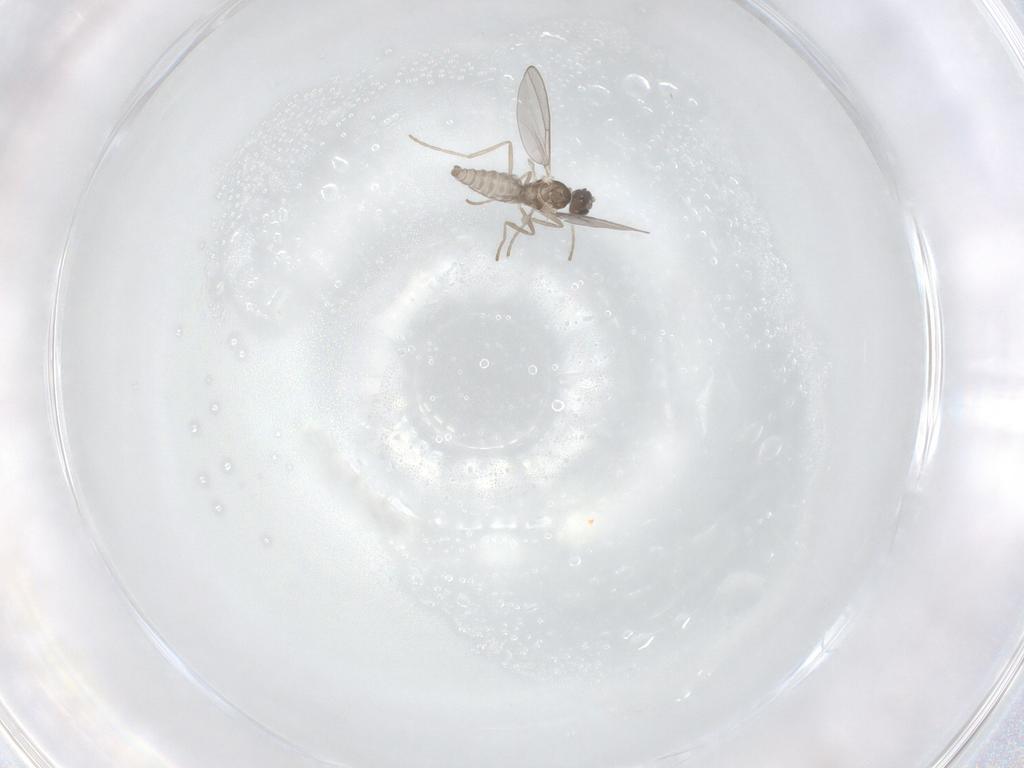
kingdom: Animalia
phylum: Arthropoda
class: Insecta
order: Diptera
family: Cecidomyiidae
